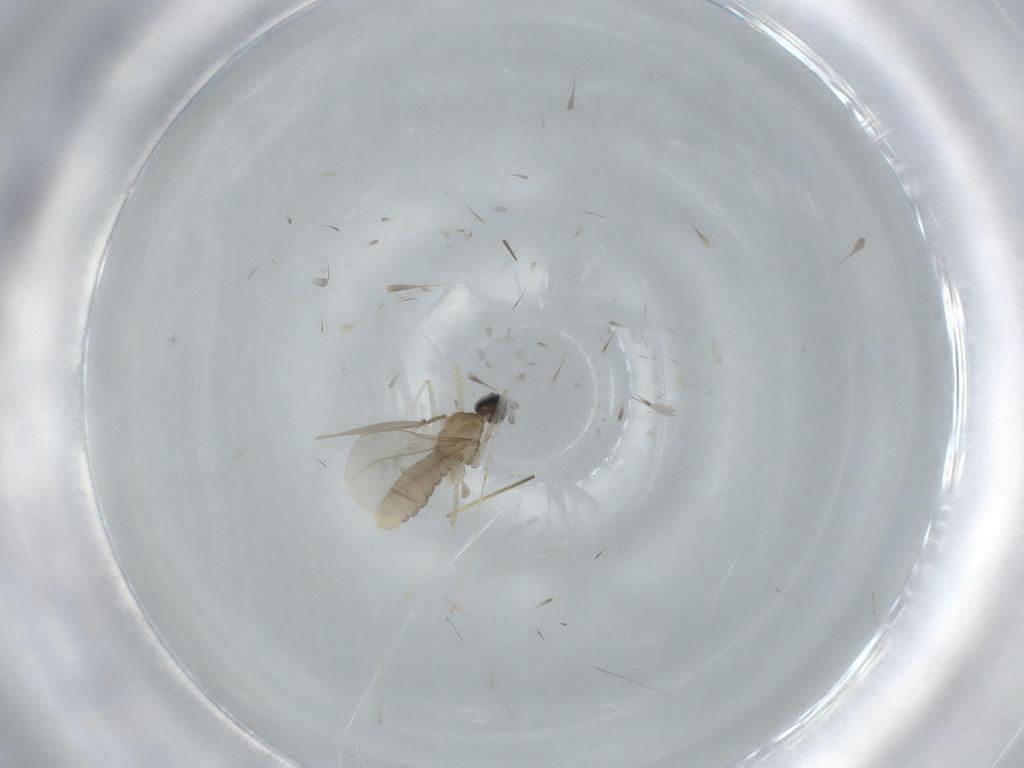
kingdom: Animalia
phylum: Arthropoda
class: Insecta
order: Diptera
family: Cecidomyiidae
